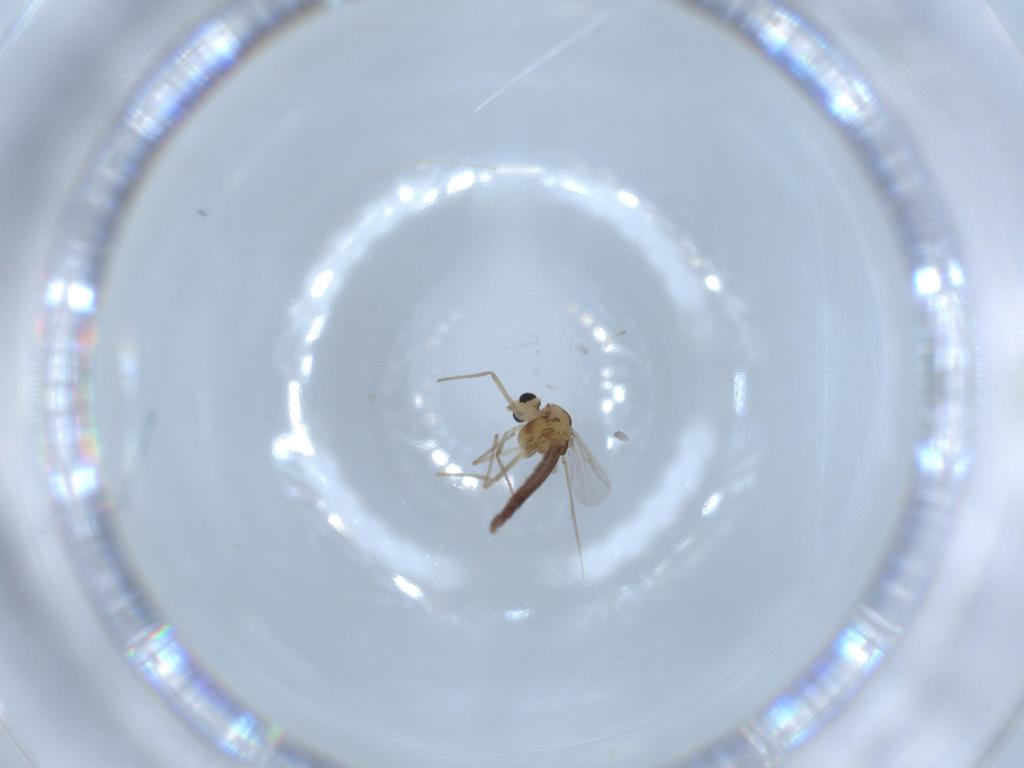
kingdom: Animalia
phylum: Arthropoda
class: Insecta
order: Diptera
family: Chironomidae
